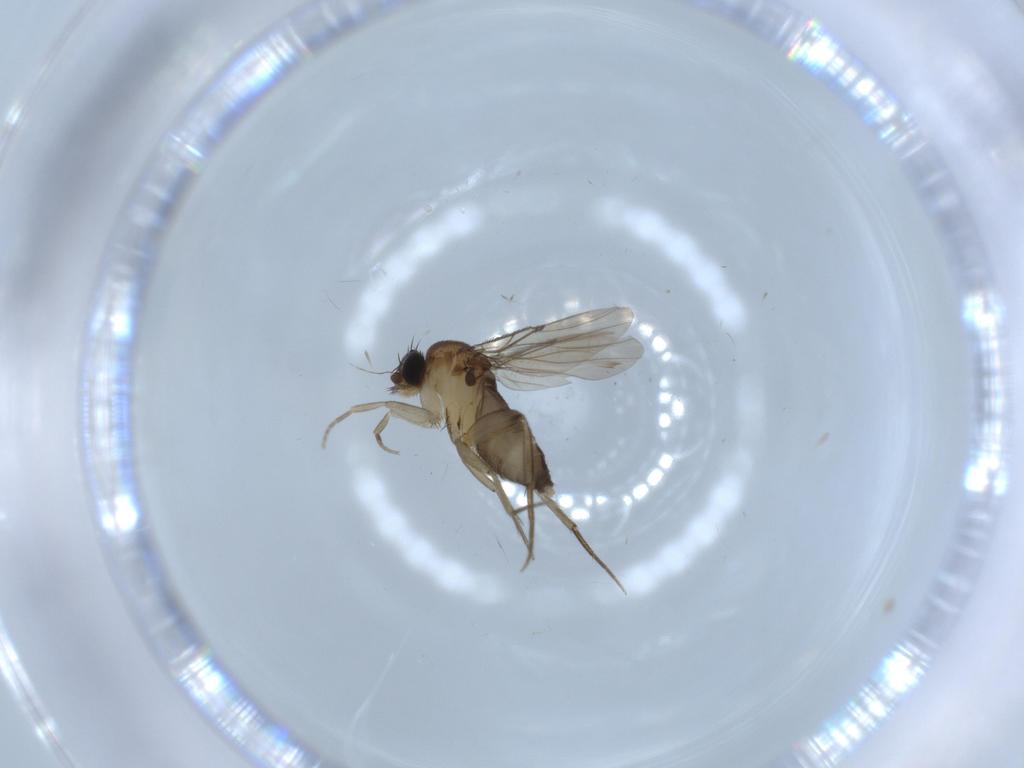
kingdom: Animalia
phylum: Arthropoda
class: Insecta
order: Diptera
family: Phoridae
